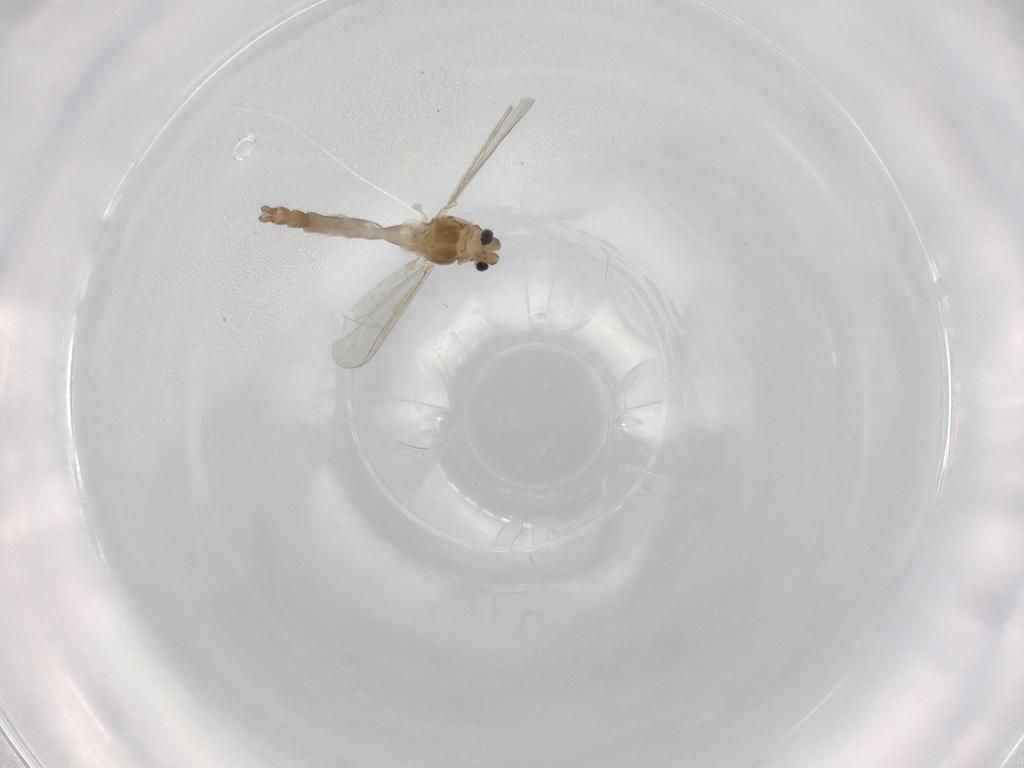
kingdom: Animalia
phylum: Arthropoda
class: Insecta
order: Diptera
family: Chironomidae
